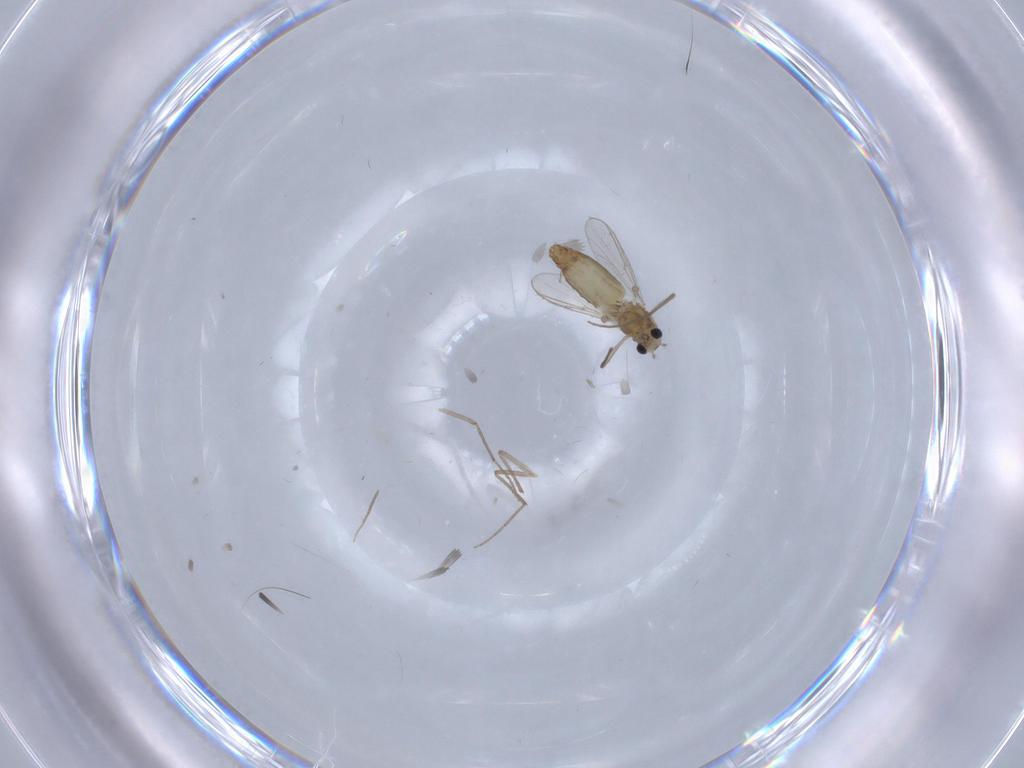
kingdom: Animalia
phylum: Arthropoda
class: Insecta
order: Diptera
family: Chironomidae
